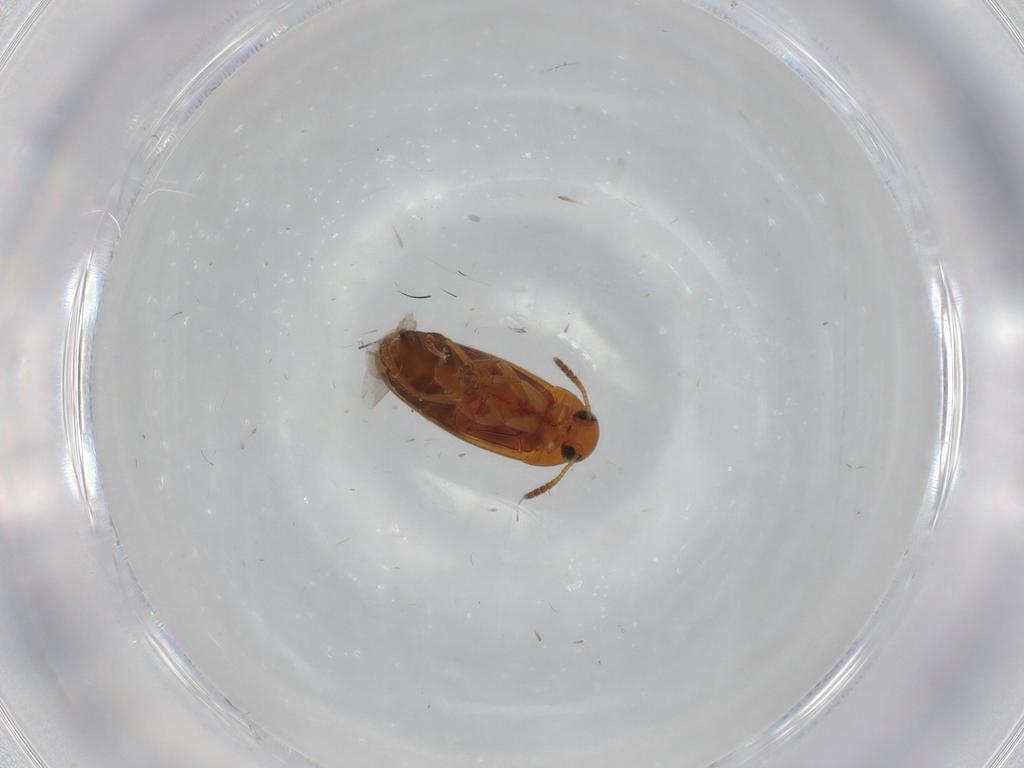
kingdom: Animalia
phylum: Arthropoda
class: Insecta
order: Coleoptera
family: Scraptiidae
